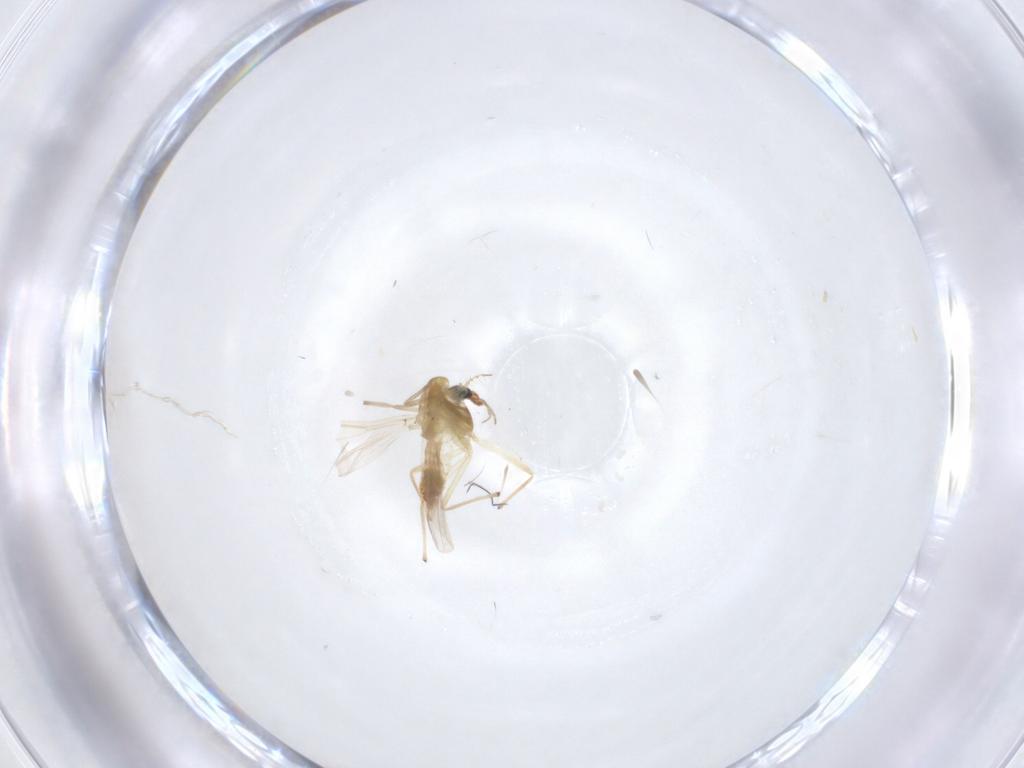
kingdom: Animalia
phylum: Arthropoda
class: Insecta
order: Diptera
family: Chironomidae
